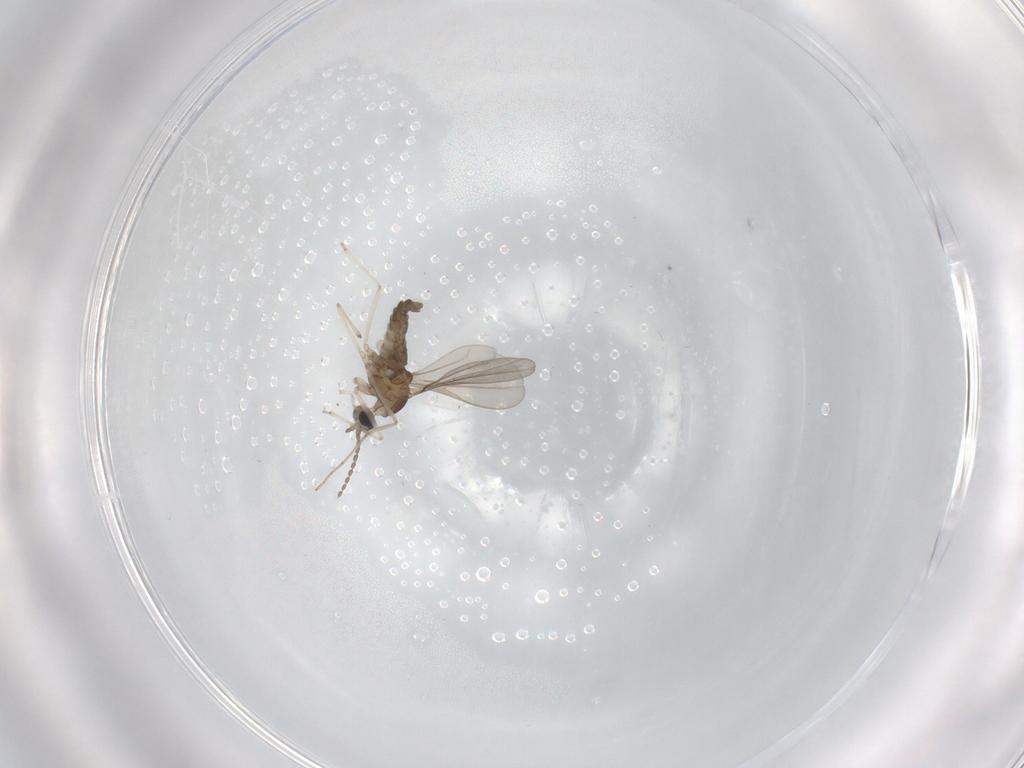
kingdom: Animalia
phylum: Arthropoda
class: Insecta
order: Diptera
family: Cecidomyiidae
